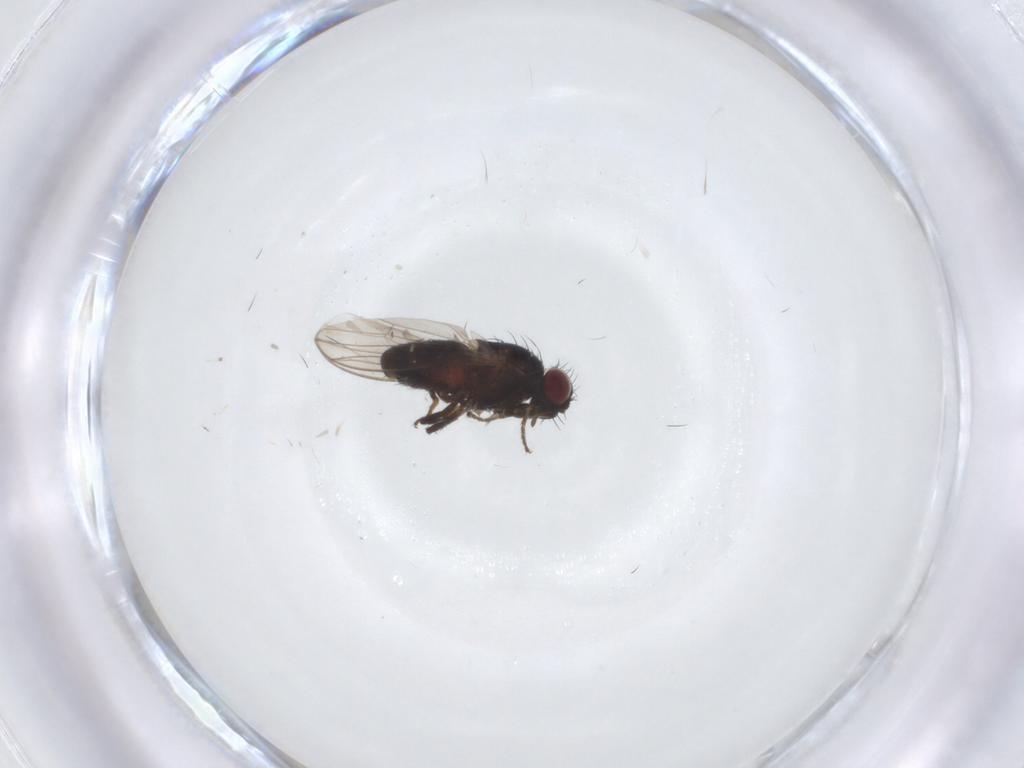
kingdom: Animalia
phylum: Arthropoda
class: Insecta
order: Diptera
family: Carnidae
